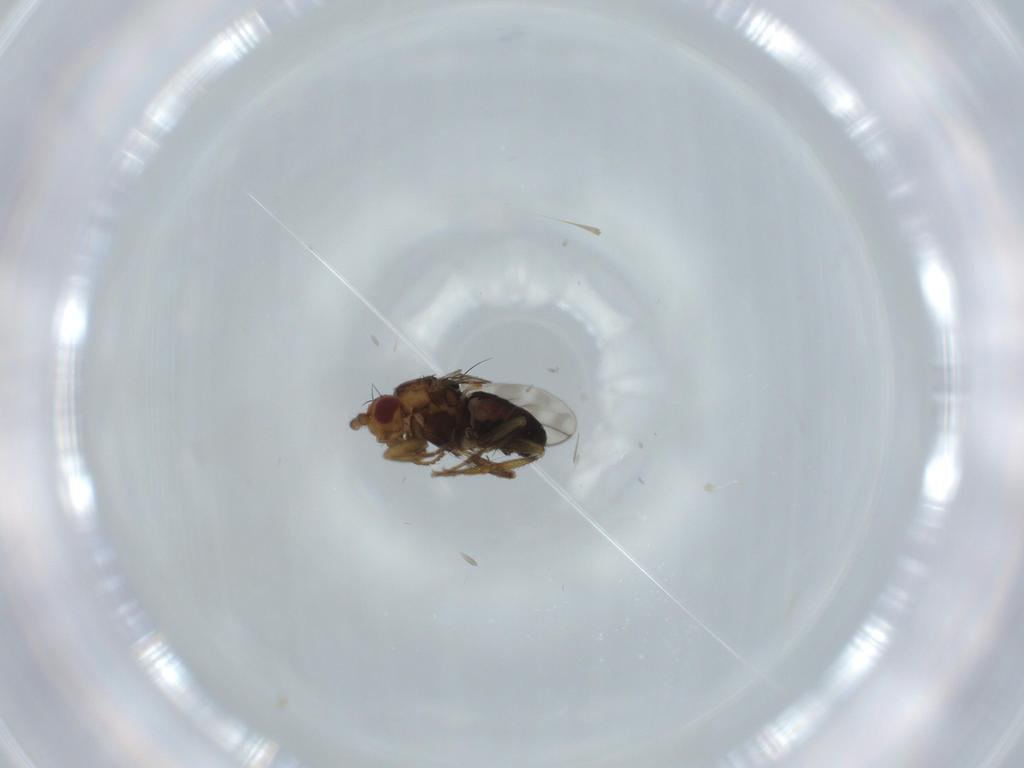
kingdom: Animalia
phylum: Arthropoda
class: Insecta
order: Diptera
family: Sphaeroceridae
